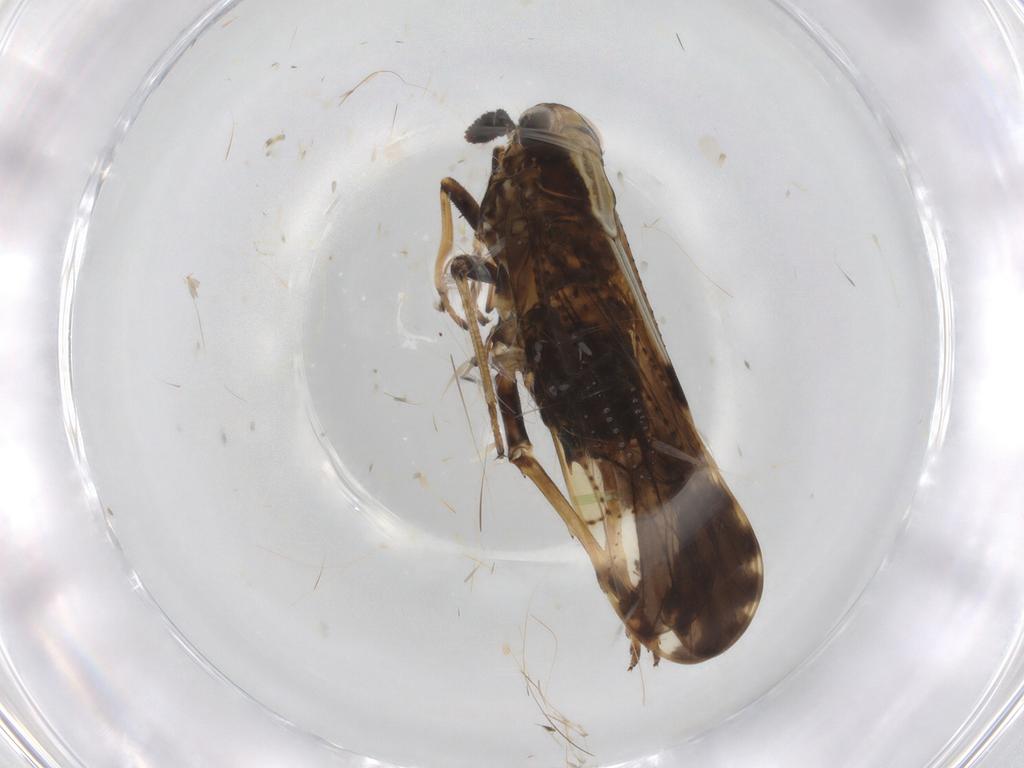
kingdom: Animalia
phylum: Arthropoda
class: Insecta
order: Hemiptera
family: Delphacidae
